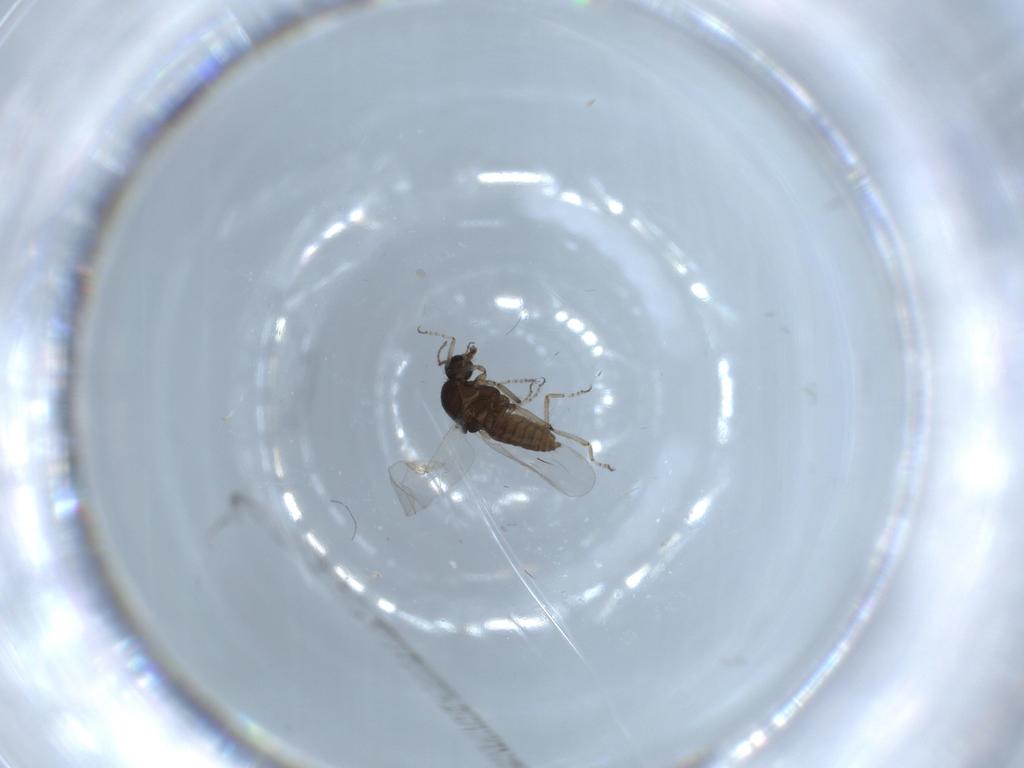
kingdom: Animalia
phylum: Arthropoda
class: Insecta
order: Diptera
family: Ceratopogonidae
